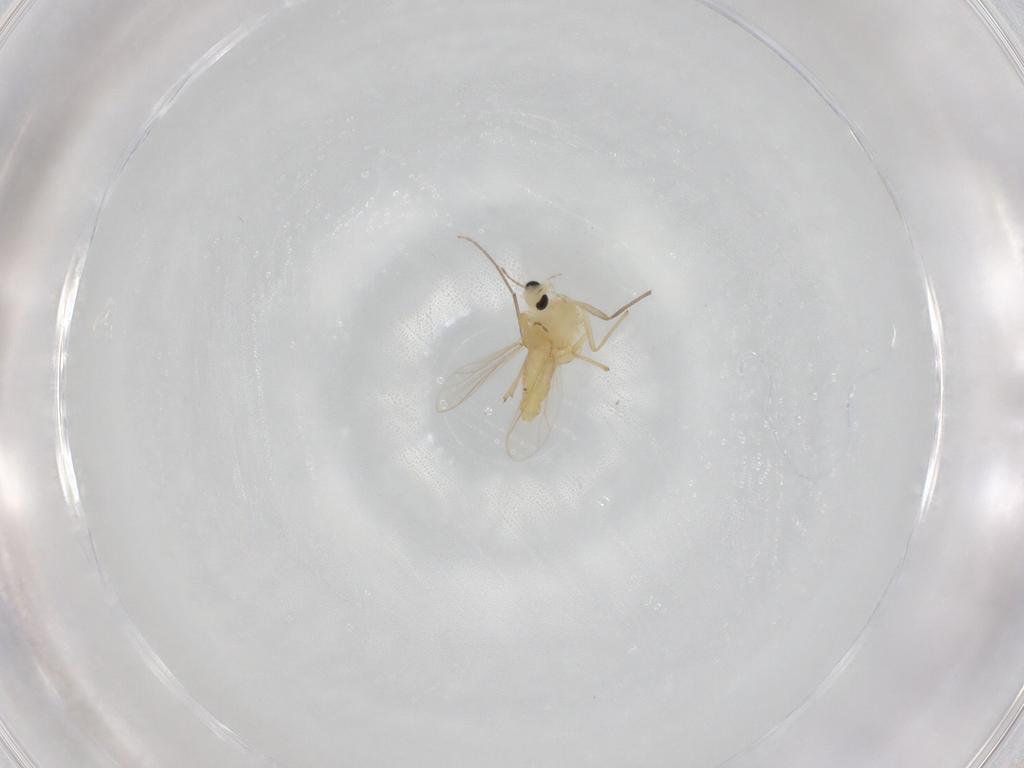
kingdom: Animalia
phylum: Arthropoda
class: Insecta
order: Diptera
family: Chironomidae
